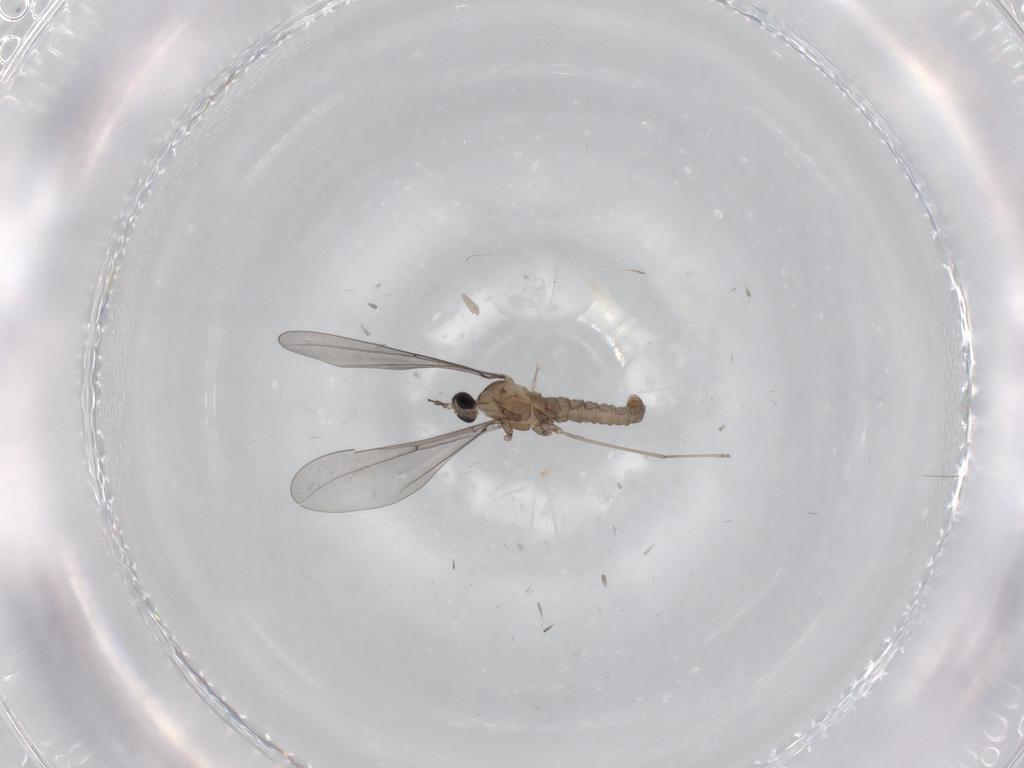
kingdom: Animalia
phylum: Arthropoda
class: Insecta
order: Diptera
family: Cecidomyiidae
